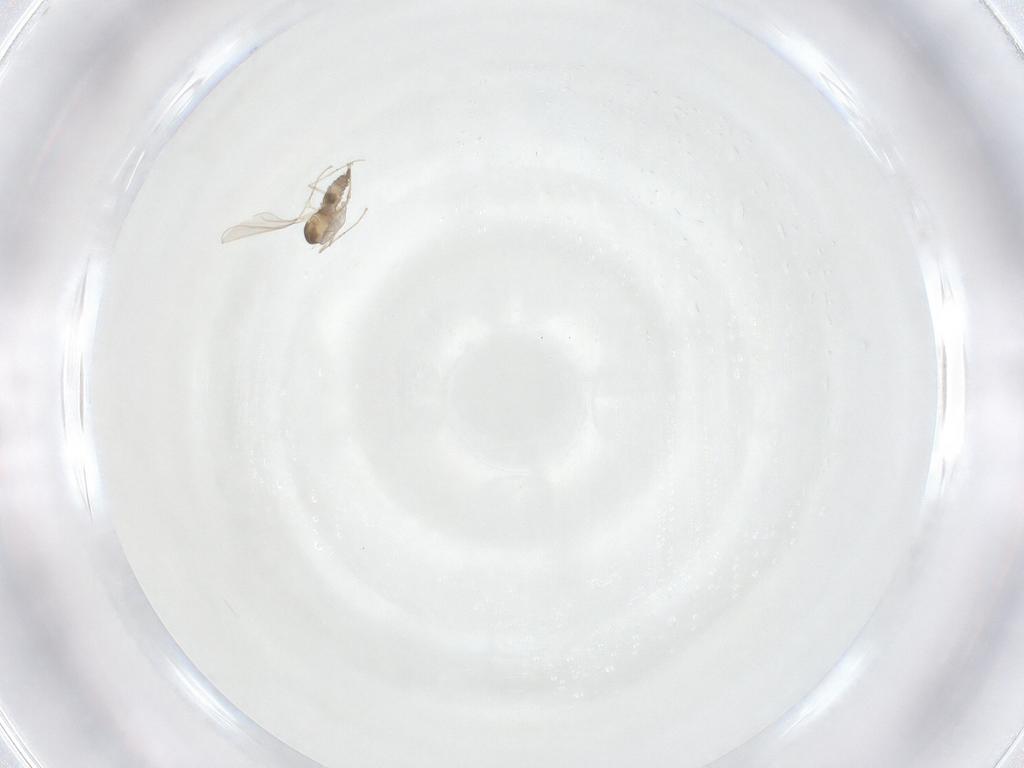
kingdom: Animalia
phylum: Arthropoda
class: Insecta
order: Diptera
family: Cecidomyiidae
